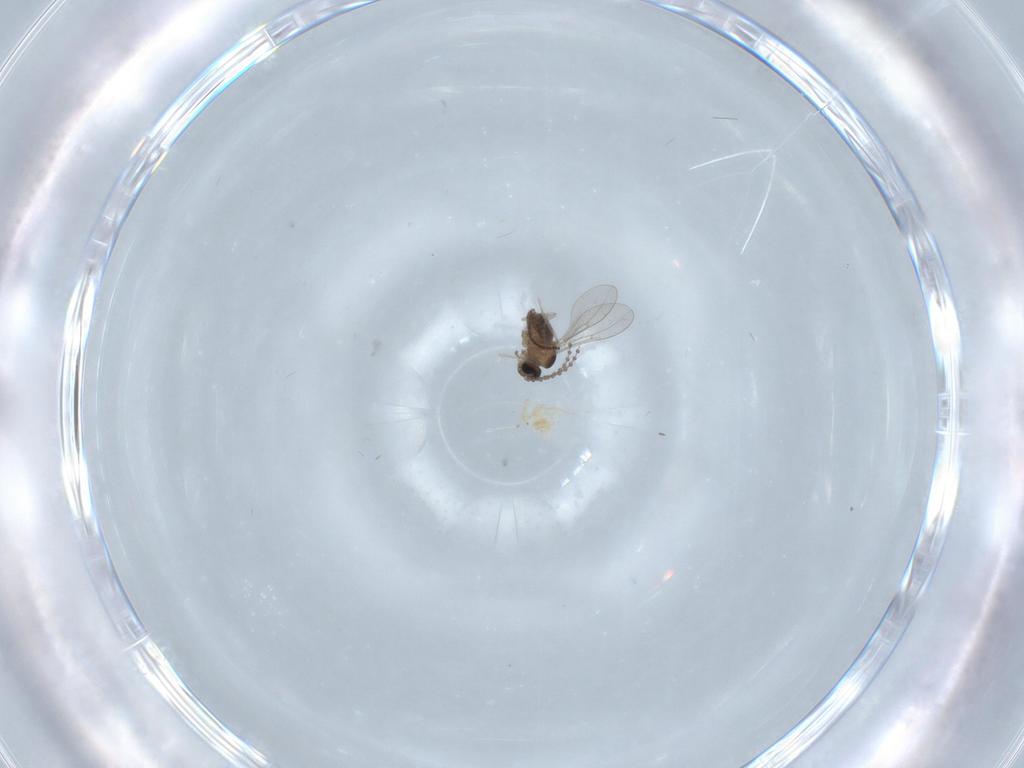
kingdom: Animalia
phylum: Arthropoda
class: Insecta
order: Diptera
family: Cecidomyiidae
